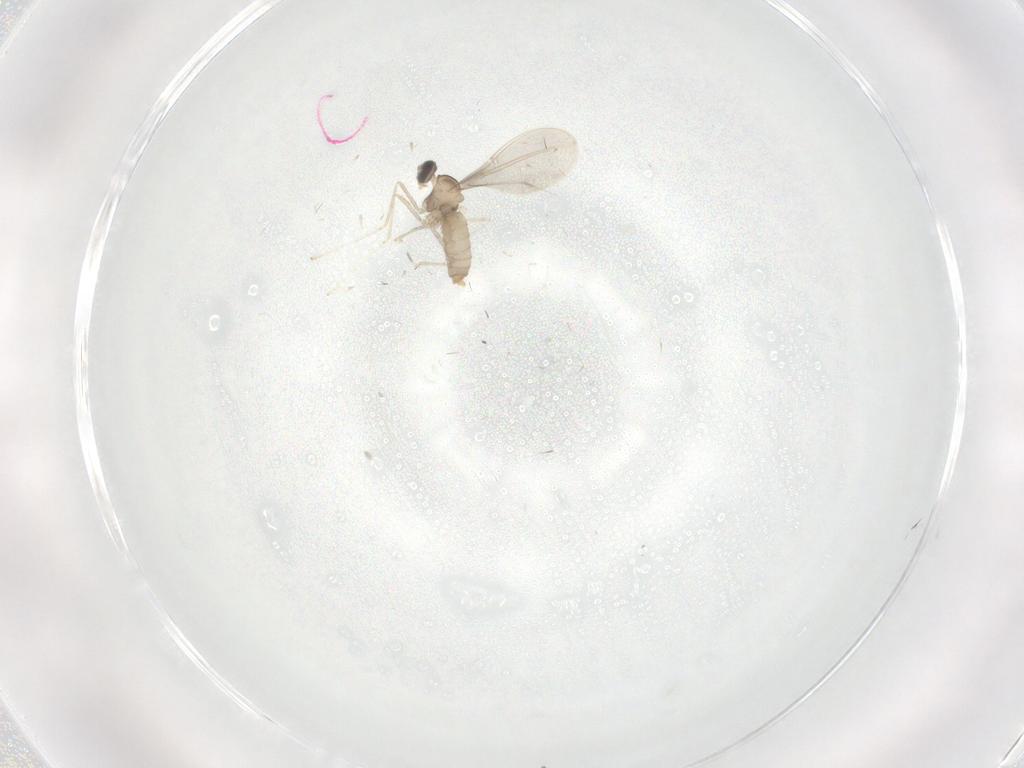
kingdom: Animalia
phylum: Arthropoda
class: Insecta
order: Diptera
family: Cecidomyiidae
